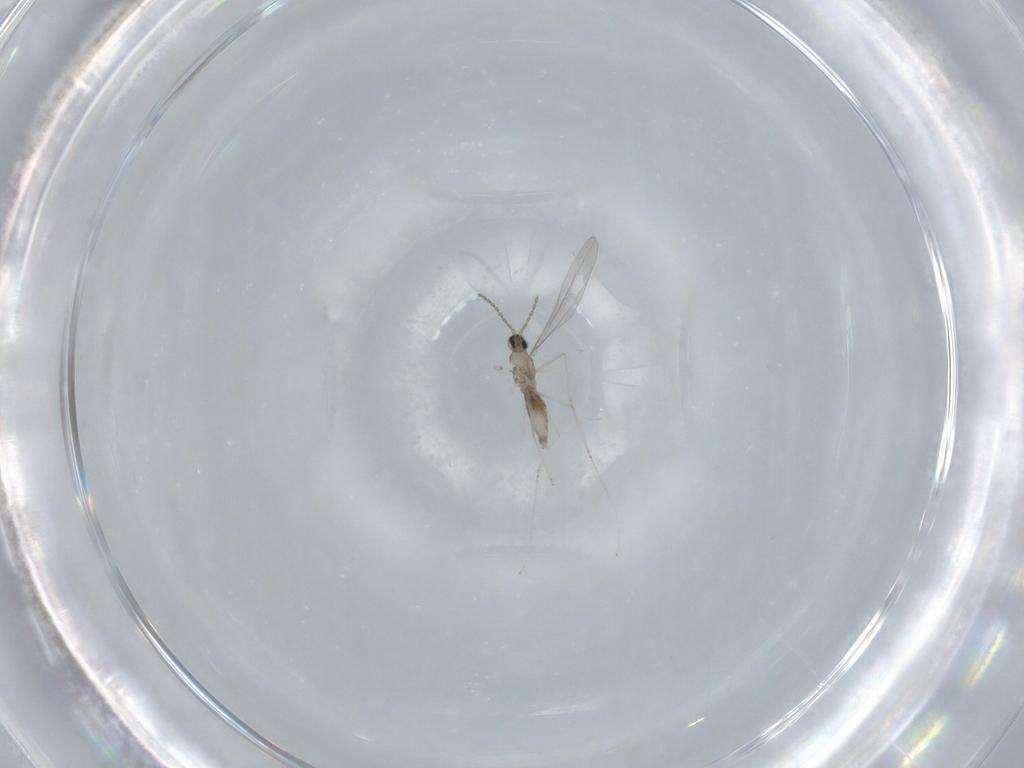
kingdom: Animalia
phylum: Arthropoda
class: Insecta
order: Diptera
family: Cecidomyiidae
